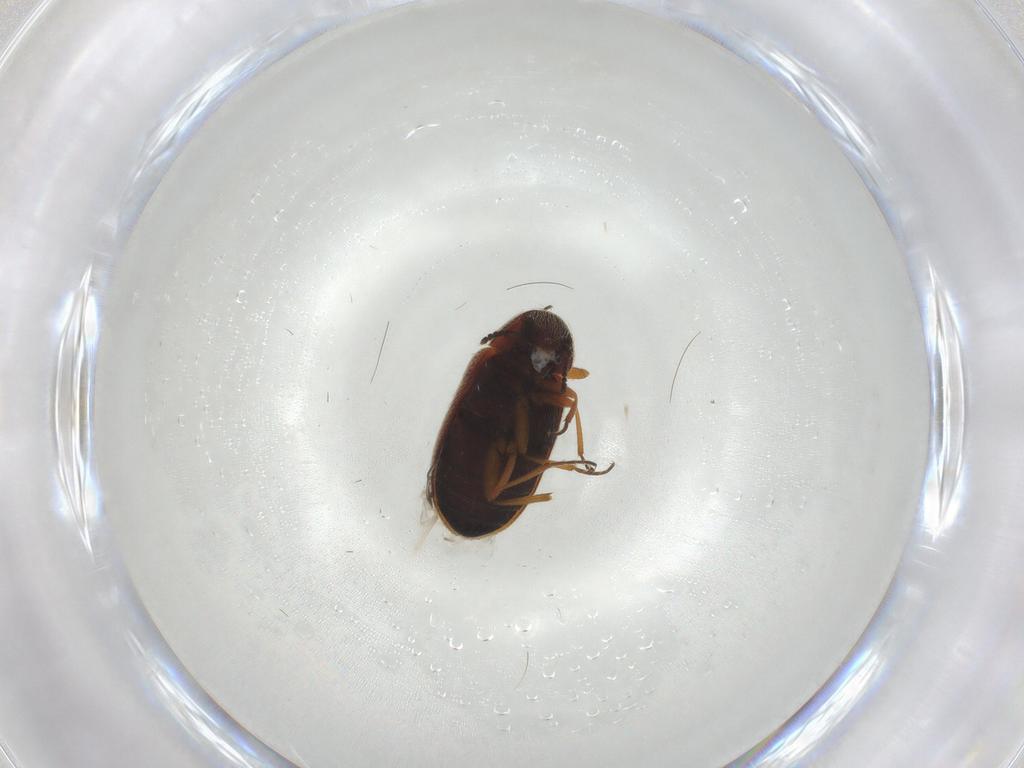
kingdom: Animalia
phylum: Arthropoda
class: Insecta
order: Coleoptera
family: Rhadalidae
